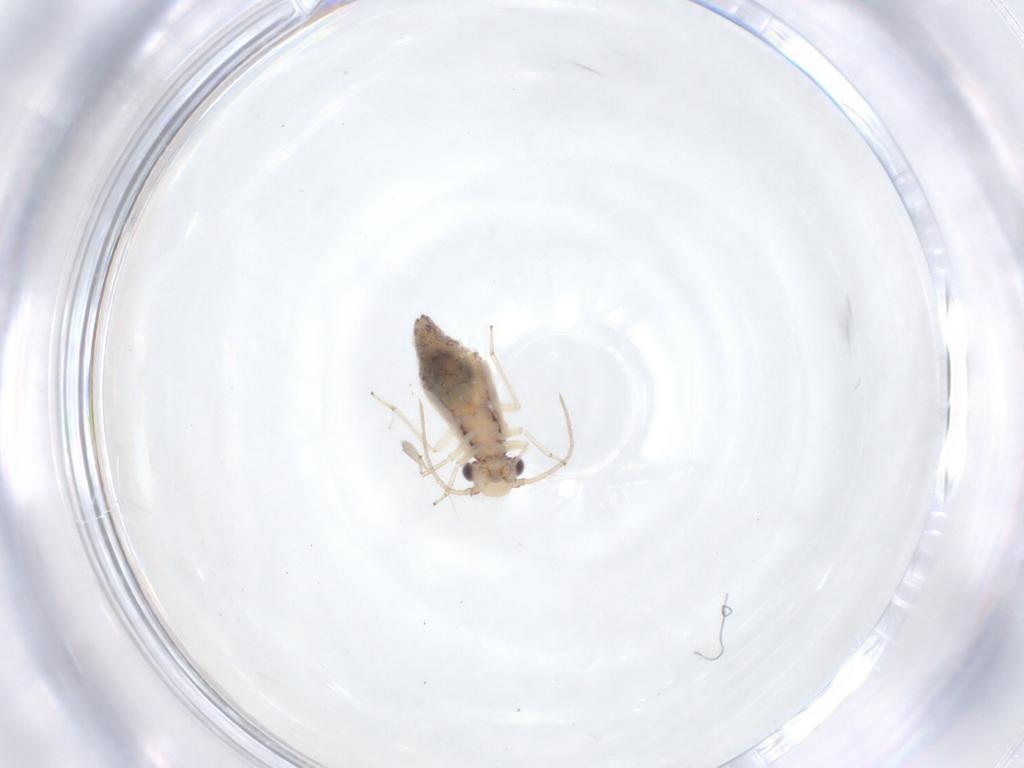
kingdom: Animalia
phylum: Arthropoda
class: Insecta
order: Psocodea
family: Pseudocaeciliidae
